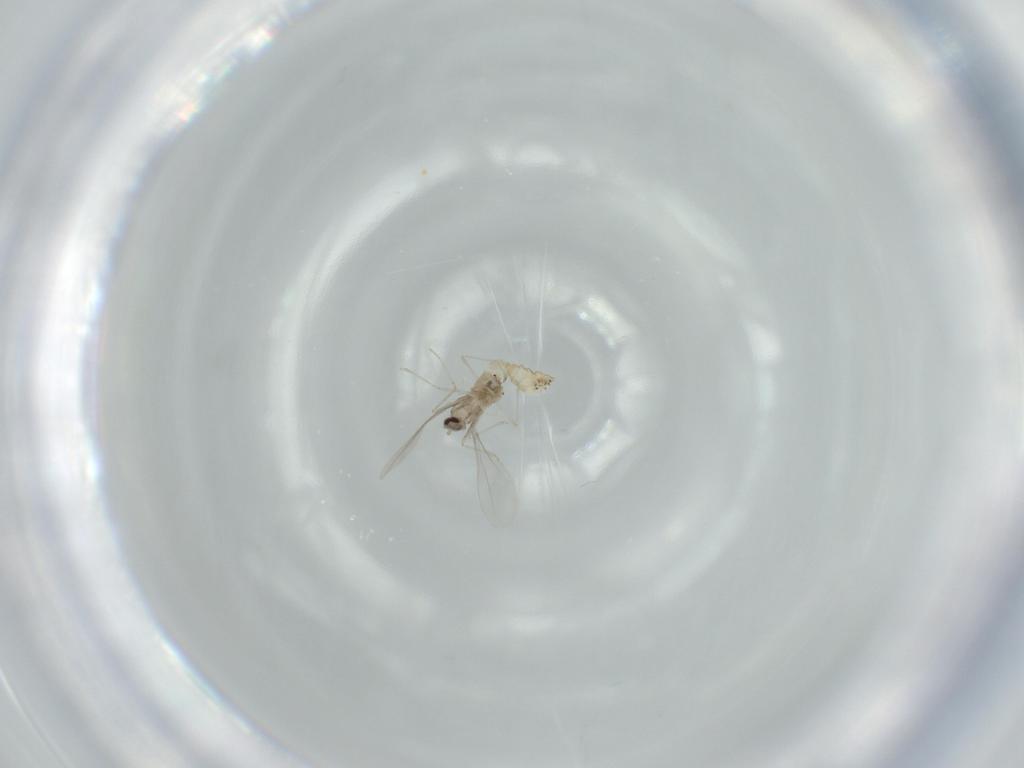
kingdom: Animalia
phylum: Arthropoda
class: Insecta
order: Diptera
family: Cecidomyiidae
